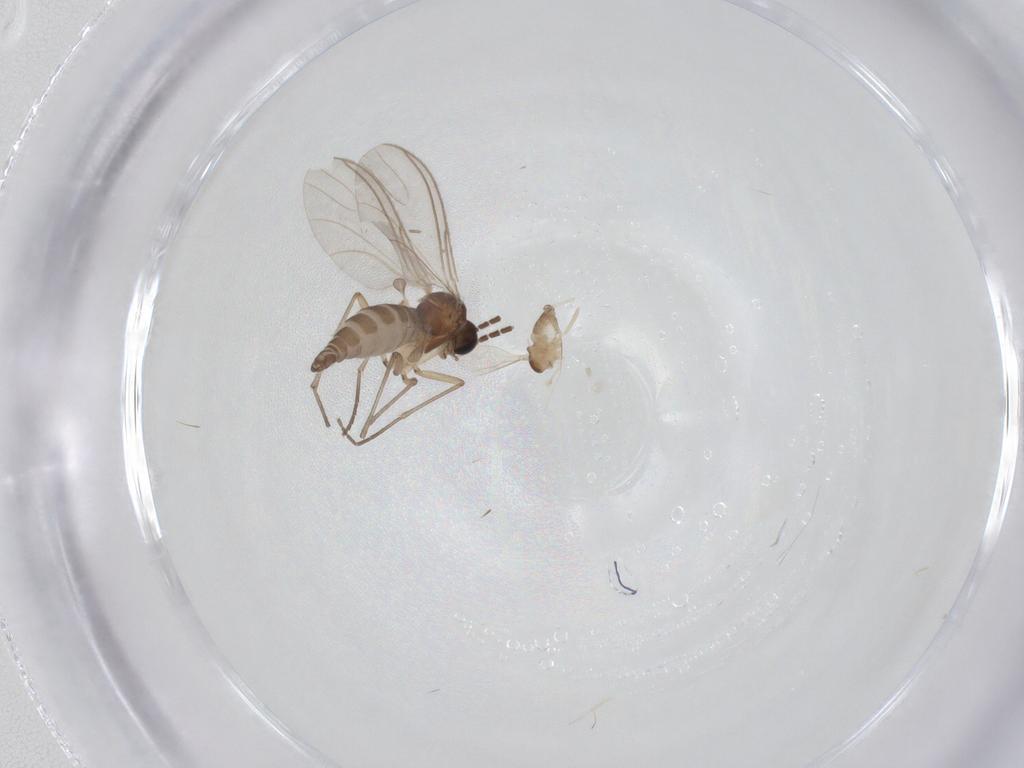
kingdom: Animalia
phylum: Arthropoda
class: Insecta
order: Diptera
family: Cecidomyiidae
